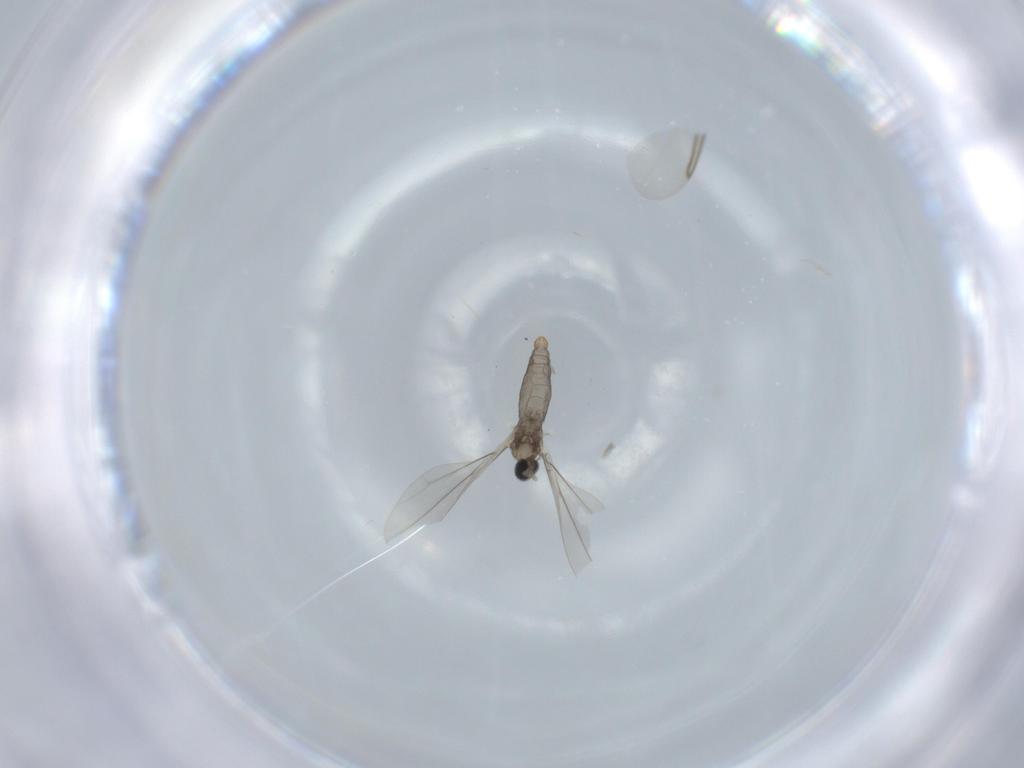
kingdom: Animalia
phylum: Arthropoda
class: Insecta
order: Diptera
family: Cecidomyiidae
